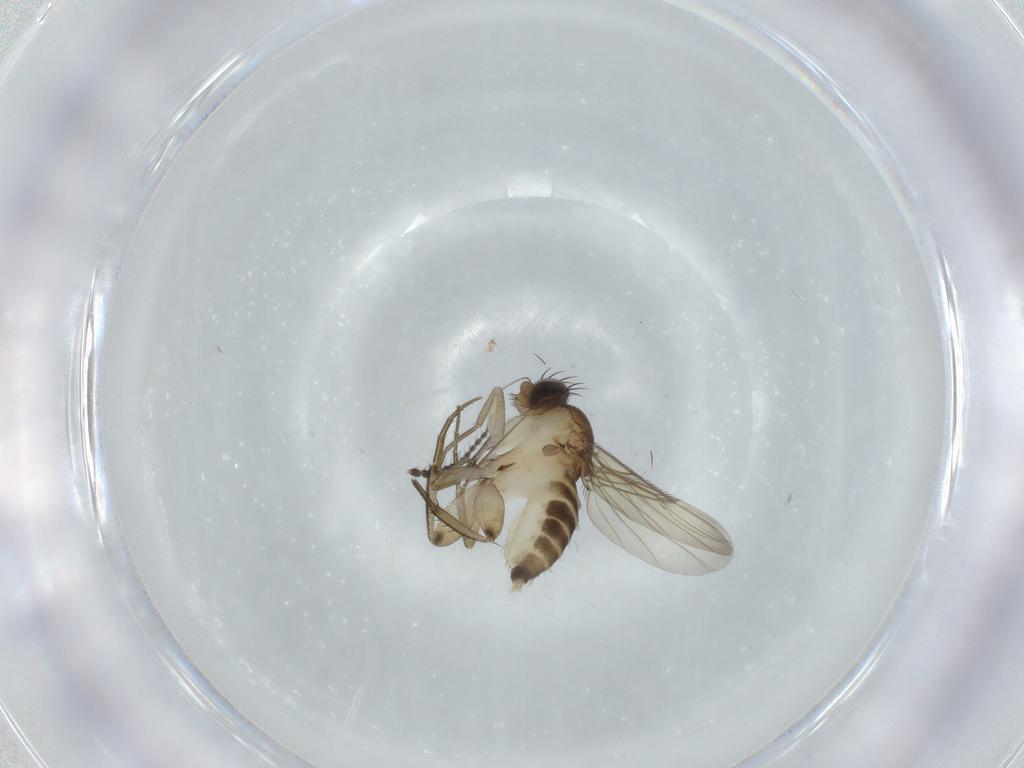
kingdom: Animalia
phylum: Arthropoda
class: Insecta
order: Diptera
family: Phoridae
